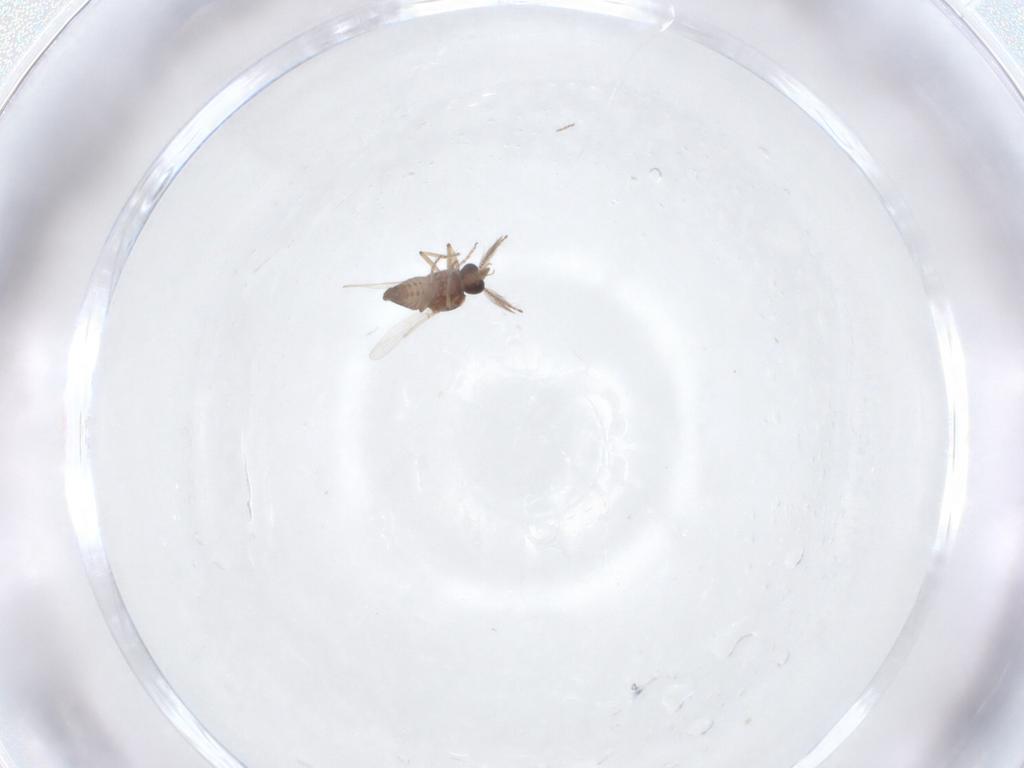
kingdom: Animalia
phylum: Arthropoda
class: Insecta
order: Diptera
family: Ceratopogonidae
